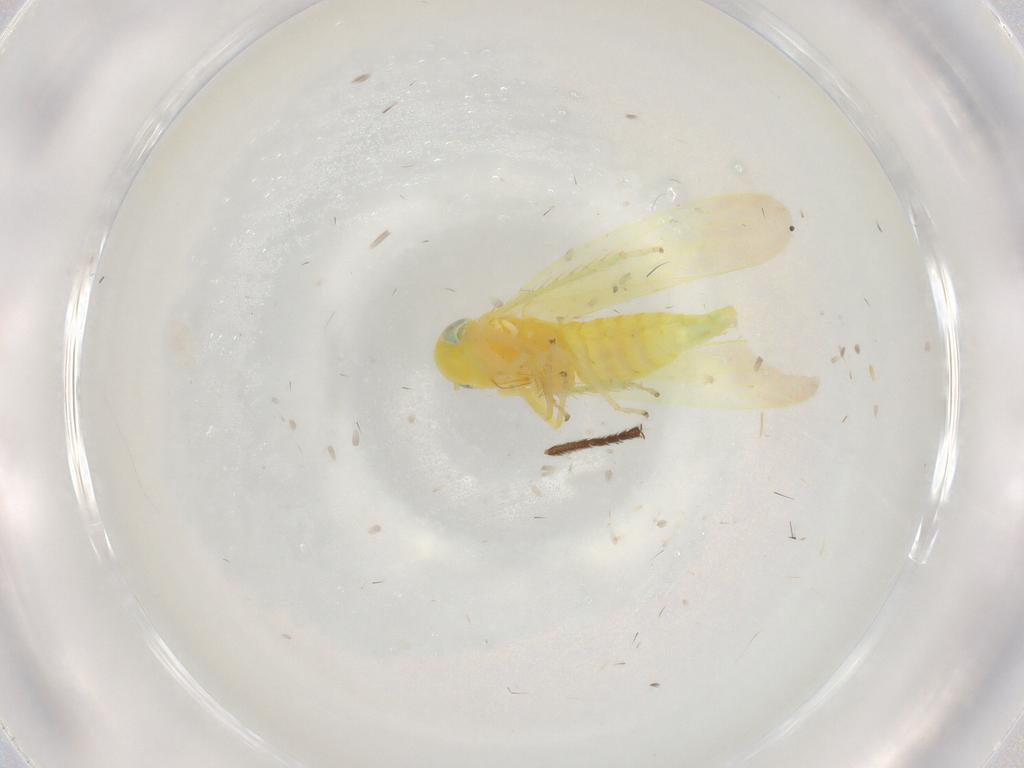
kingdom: Animalia
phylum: Arthropoda
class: Insecta
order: Hemiptera
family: Cicadellidae
